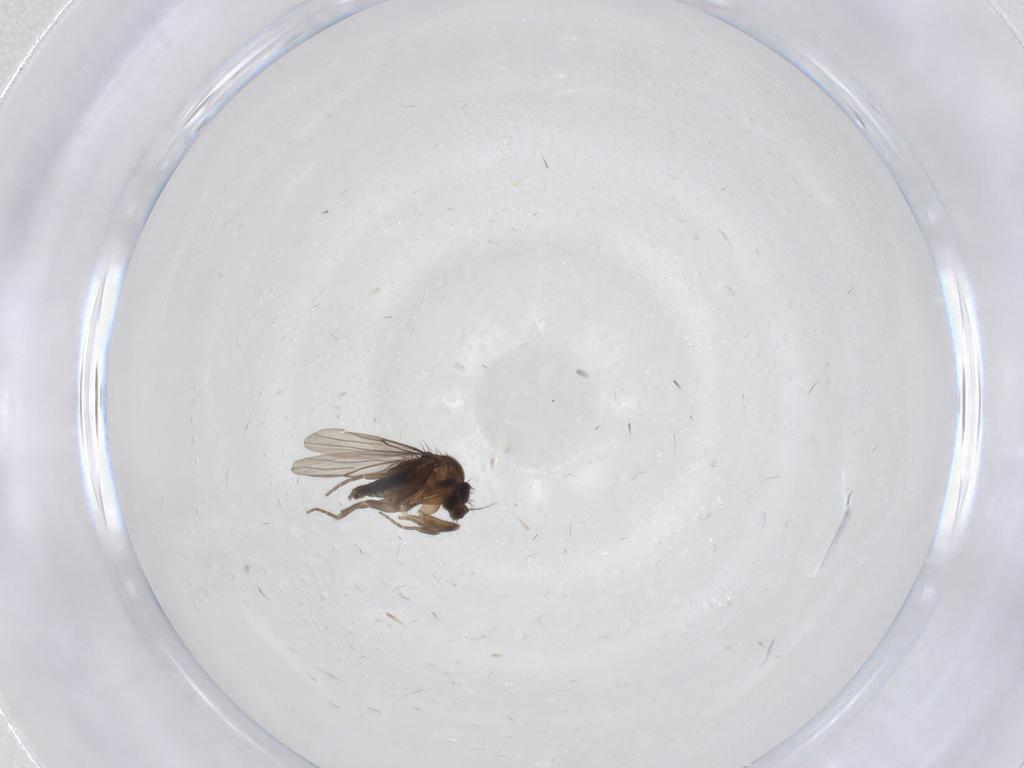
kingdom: Animalia
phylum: Arthropoda
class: Insecta
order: Diptera
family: Phoridae
